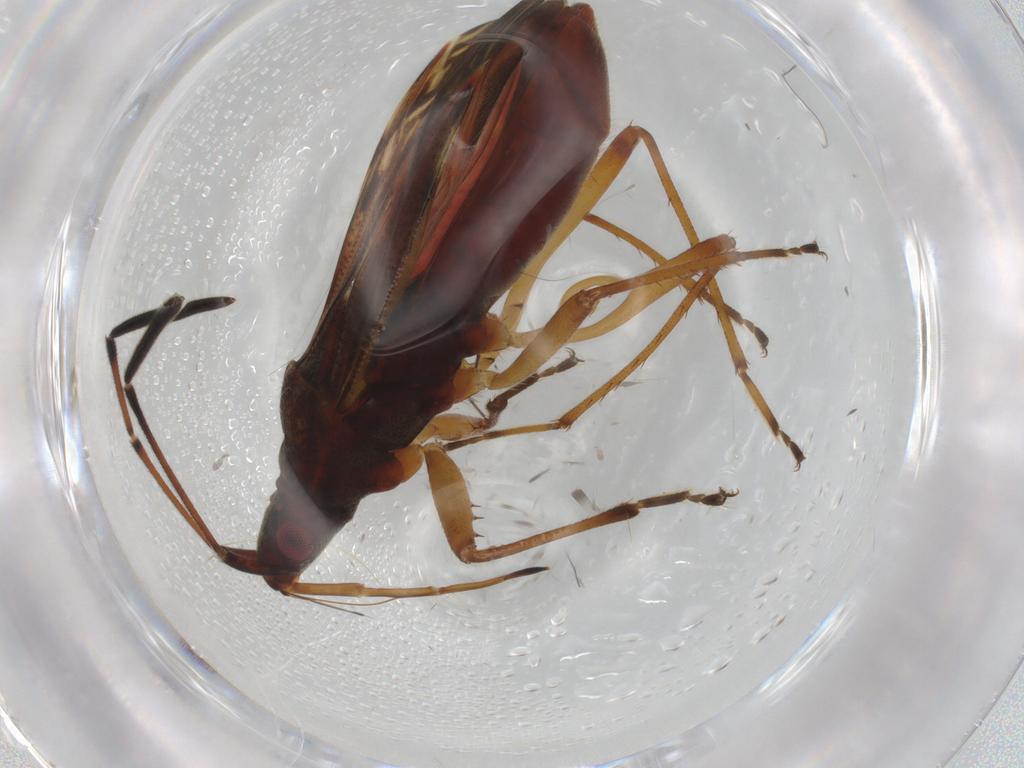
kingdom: Animalia
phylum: Arthropoda
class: Insecta
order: Hemiptera
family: Rhyparochromidae
